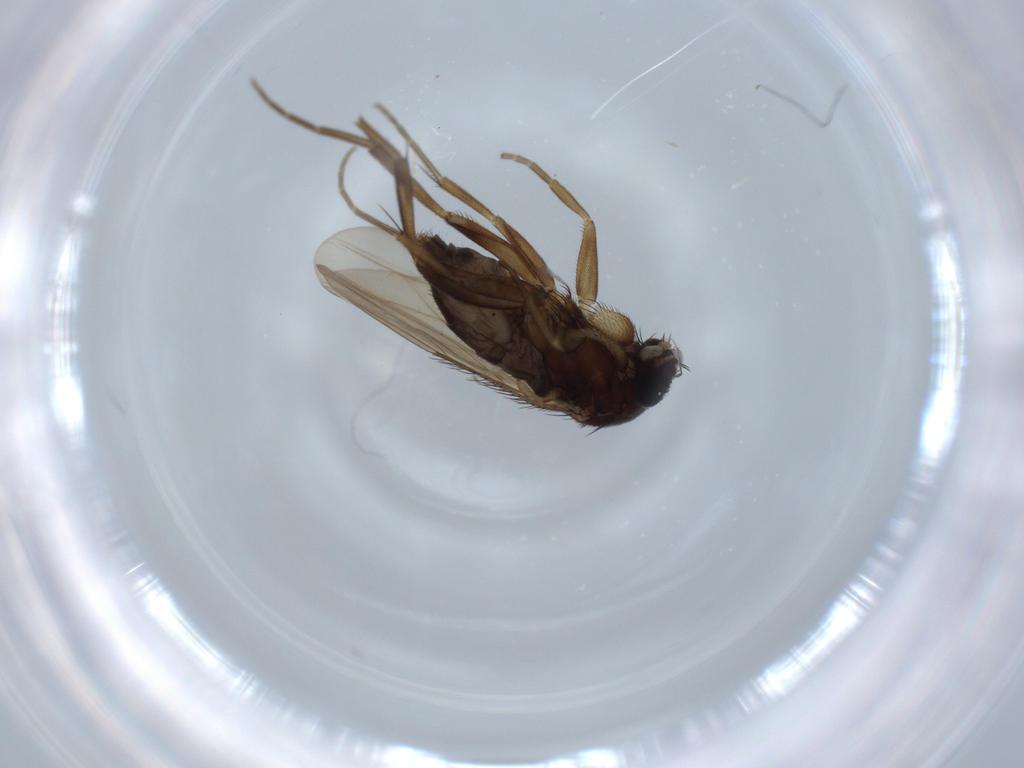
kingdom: Animalia
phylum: Arthropoda
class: Insecta
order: Diptera
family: Phoridae
